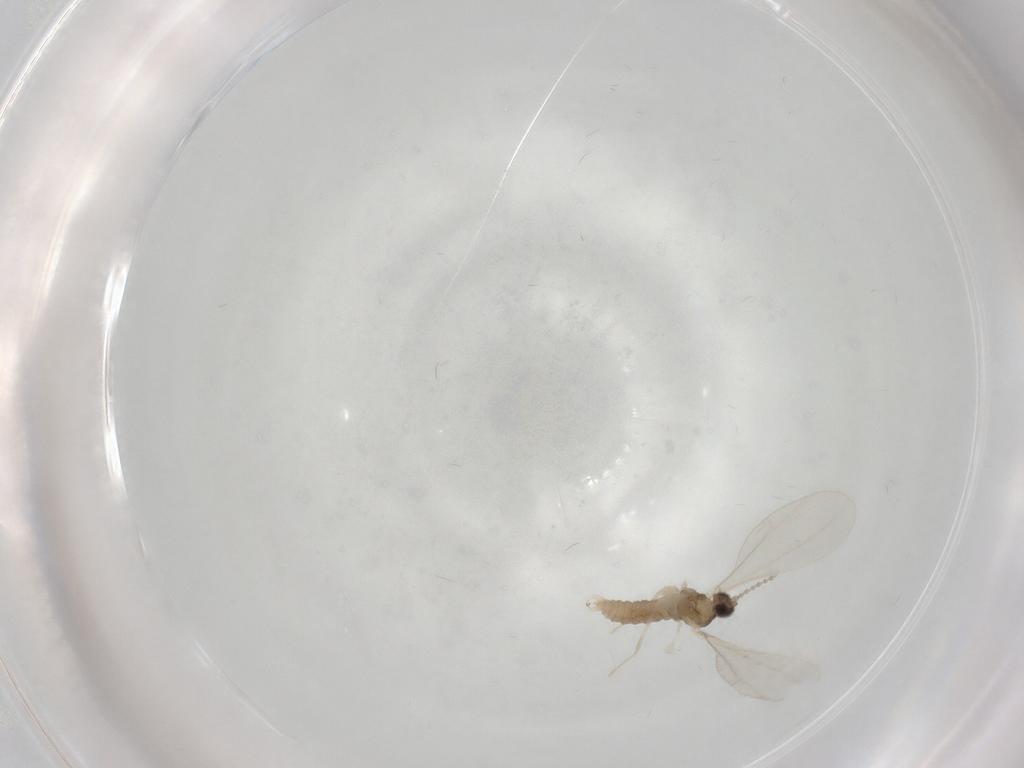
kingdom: Animalia
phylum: Arthropoda
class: Insecta
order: Diptera
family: Cecidomyiidae
